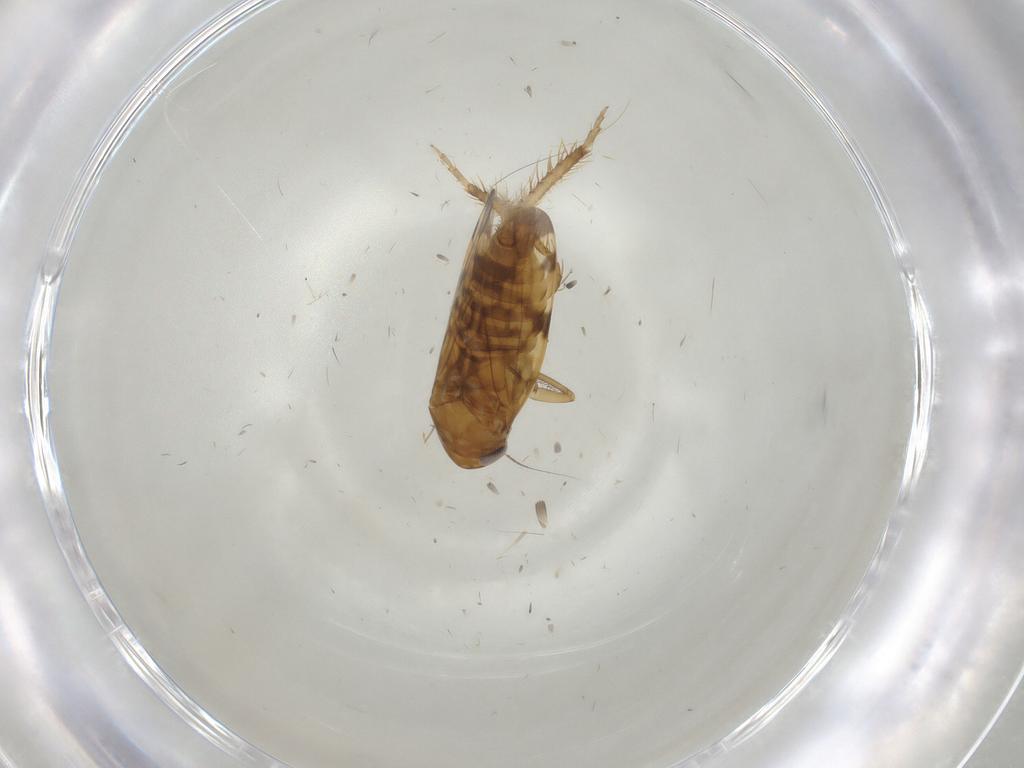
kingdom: Animalia
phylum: Arthropoda
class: Insecta
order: Hemiptera
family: Cicadellidae
